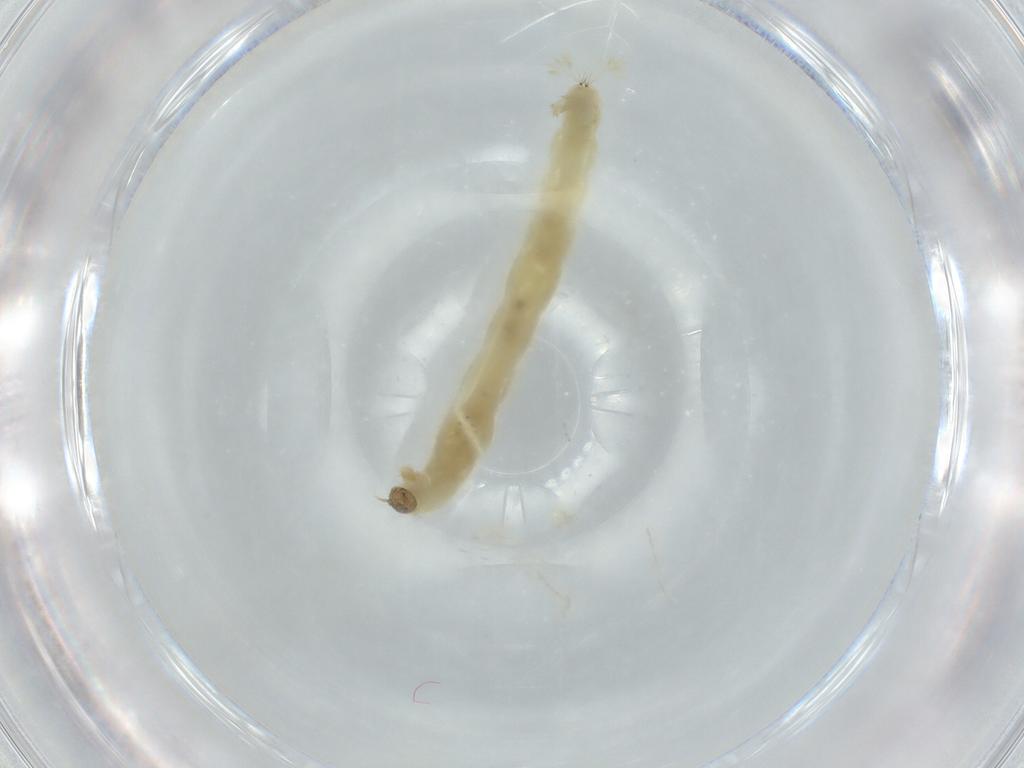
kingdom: Animalia
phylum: Arthropoda
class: Insecta
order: Diptera
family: Chironomidae
